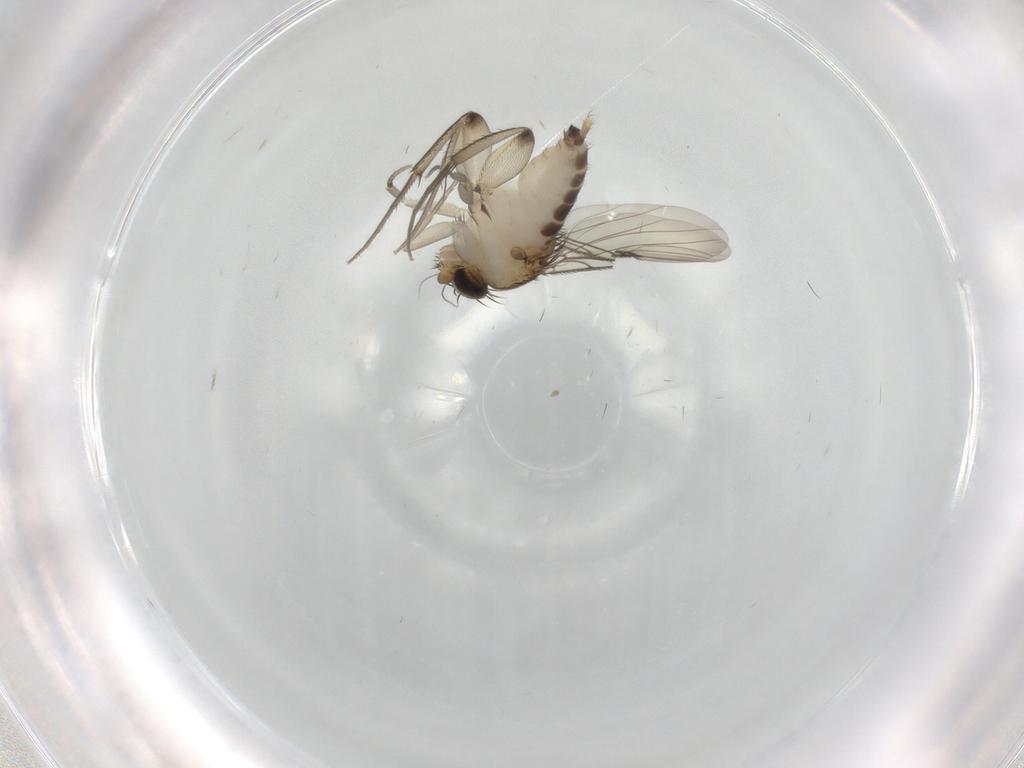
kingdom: Animalia
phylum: Arthropoda
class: Insecta
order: Diptera
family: Phoridae
